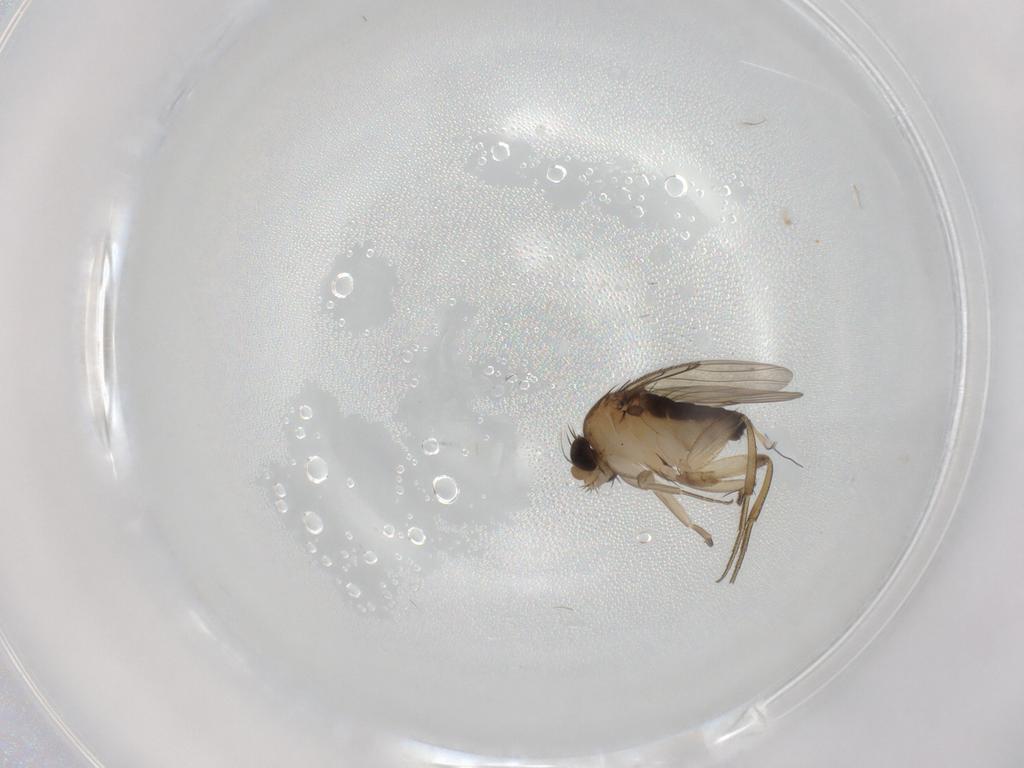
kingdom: Animalia
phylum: Arthropoda
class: Insecta
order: Diptera
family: Phoridae
